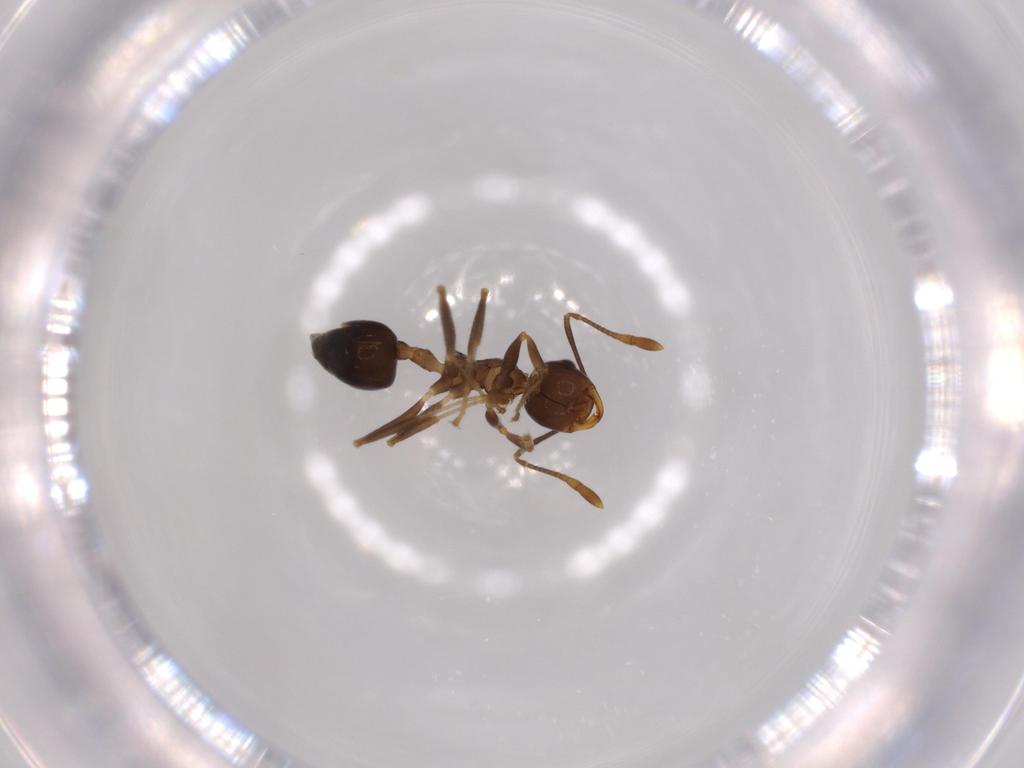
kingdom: Animalia
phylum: Arthropoda
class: Insecta
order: Hymenoptera
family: Formicidae
